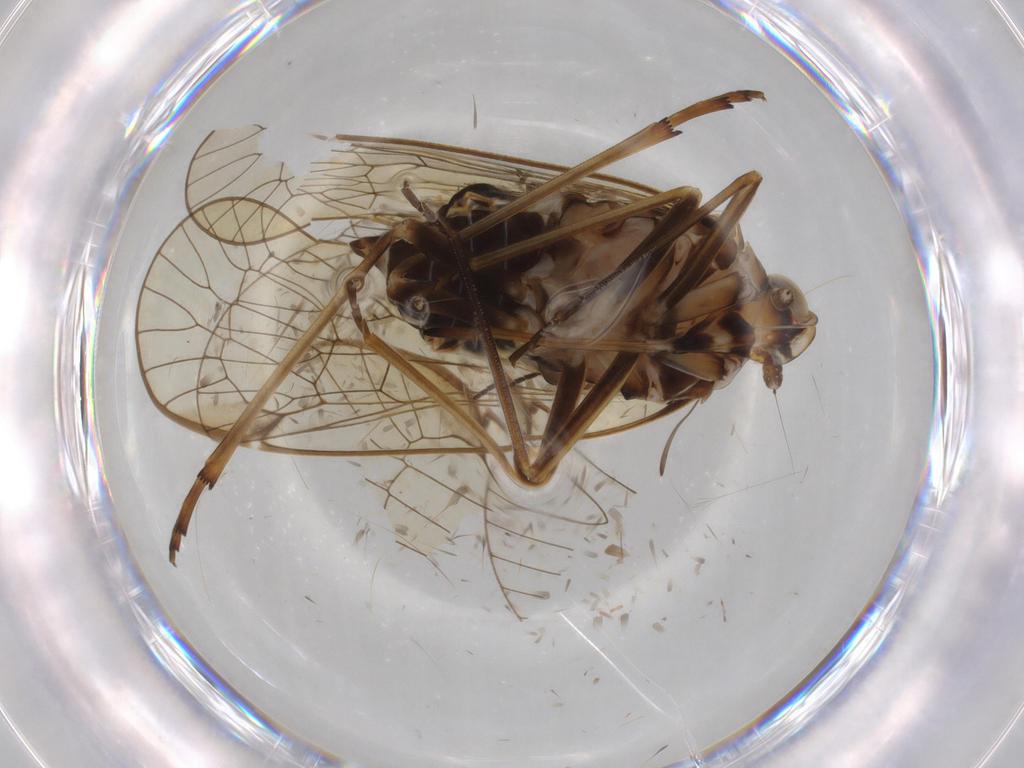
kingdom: Animalia
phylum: Arthropoda
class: Insecta
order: Hemiptera
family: Kinnaridae
